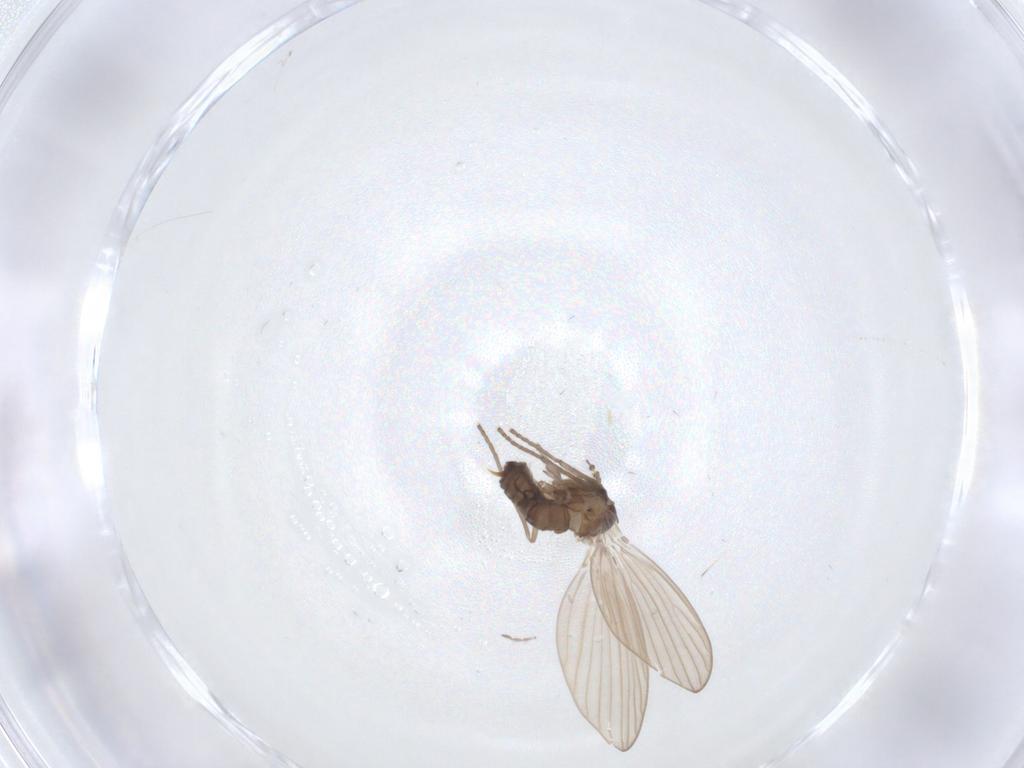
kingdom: Animalia
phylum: Arthropoda
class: Insecta
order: Diptera
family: Psychodidae
